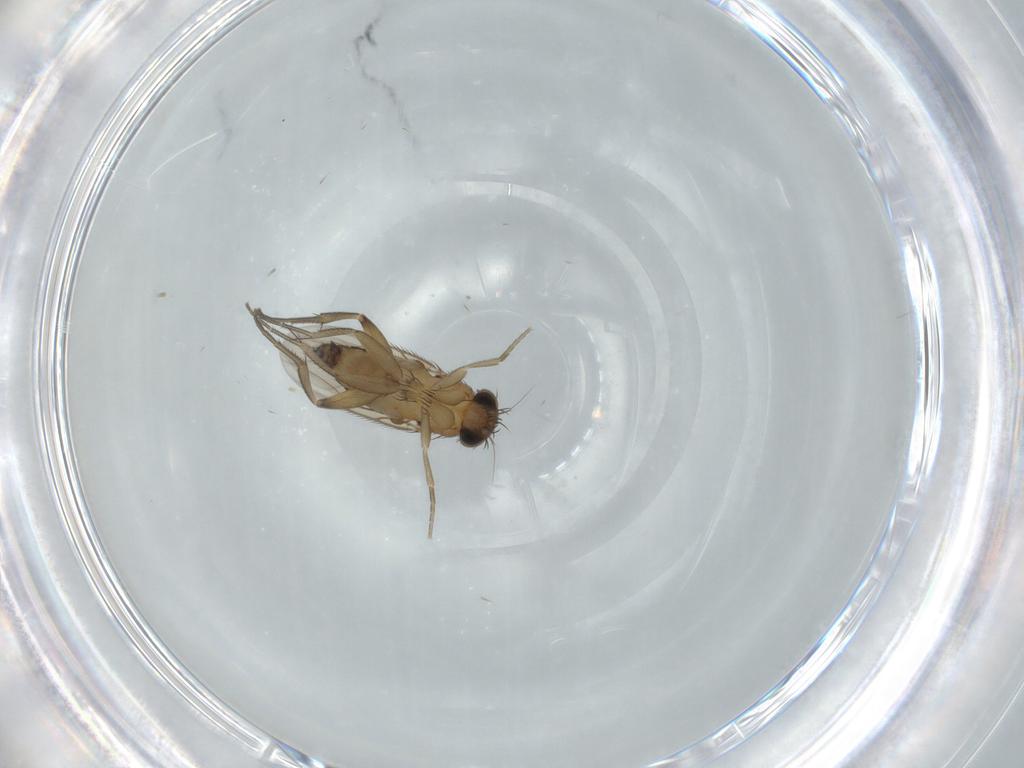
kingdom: Animalia
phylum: Arthropoda
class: Insecta
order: Diptera
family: Phoridae
